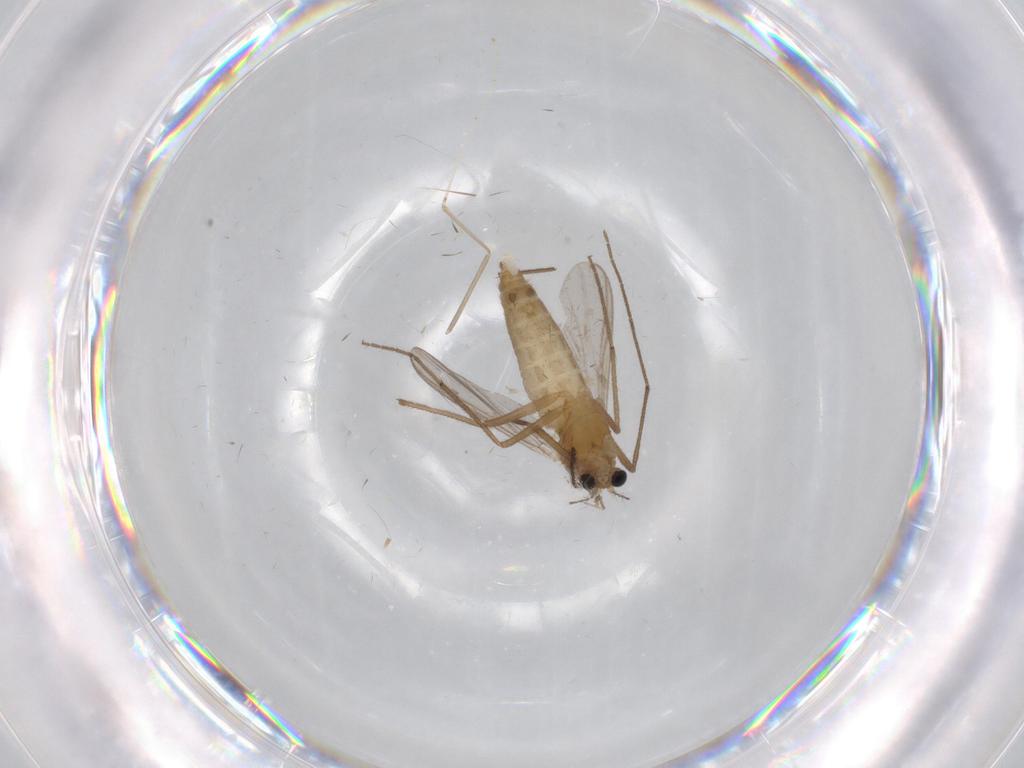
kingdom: Animalia
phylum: Arthropoda
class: Insecta
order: Diptera
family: Chironomidae
